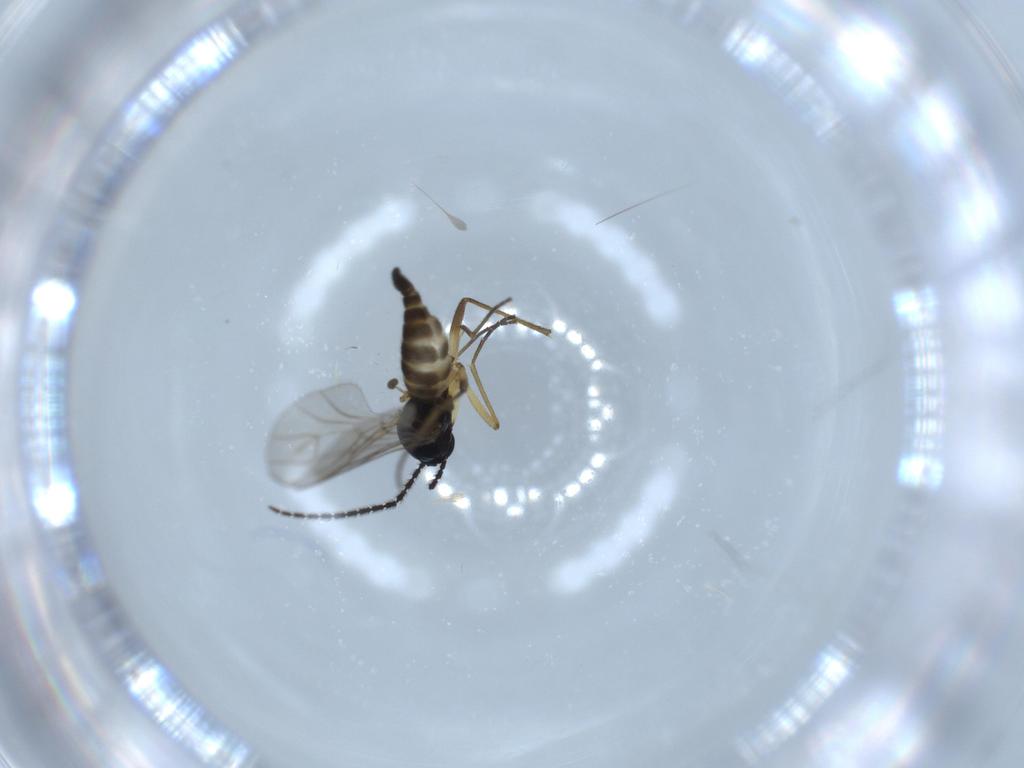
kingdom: Animalia
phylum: Arthropoda
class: Insecta
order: Diptera
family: Sciaridae
